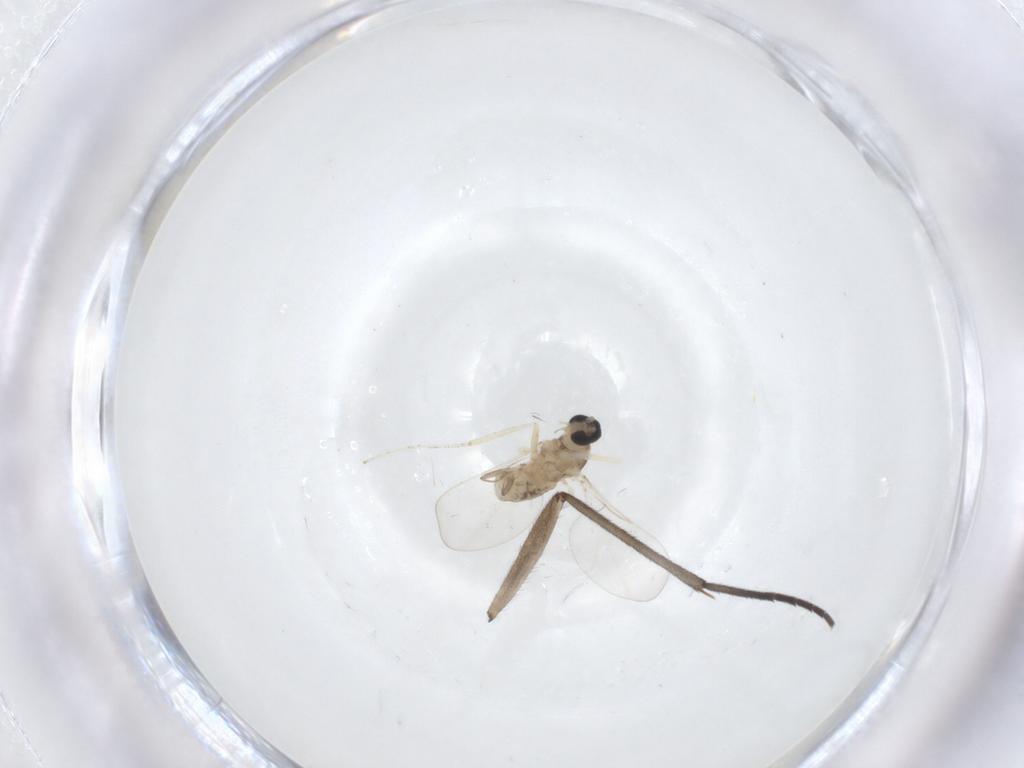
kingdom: Animalia
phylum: Arthropoda
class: Insecta
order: Diptera
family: Sciaridae
